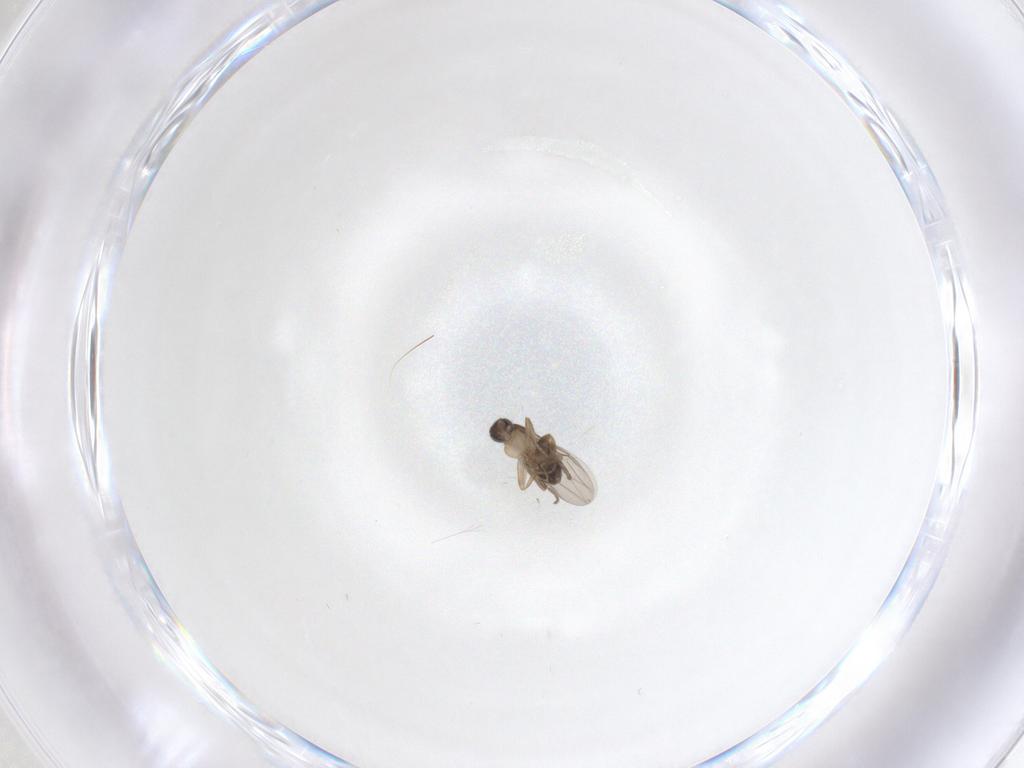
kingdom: Animalia
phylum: Arthropoda
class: Insecta
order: Diptera
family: Phoridae
